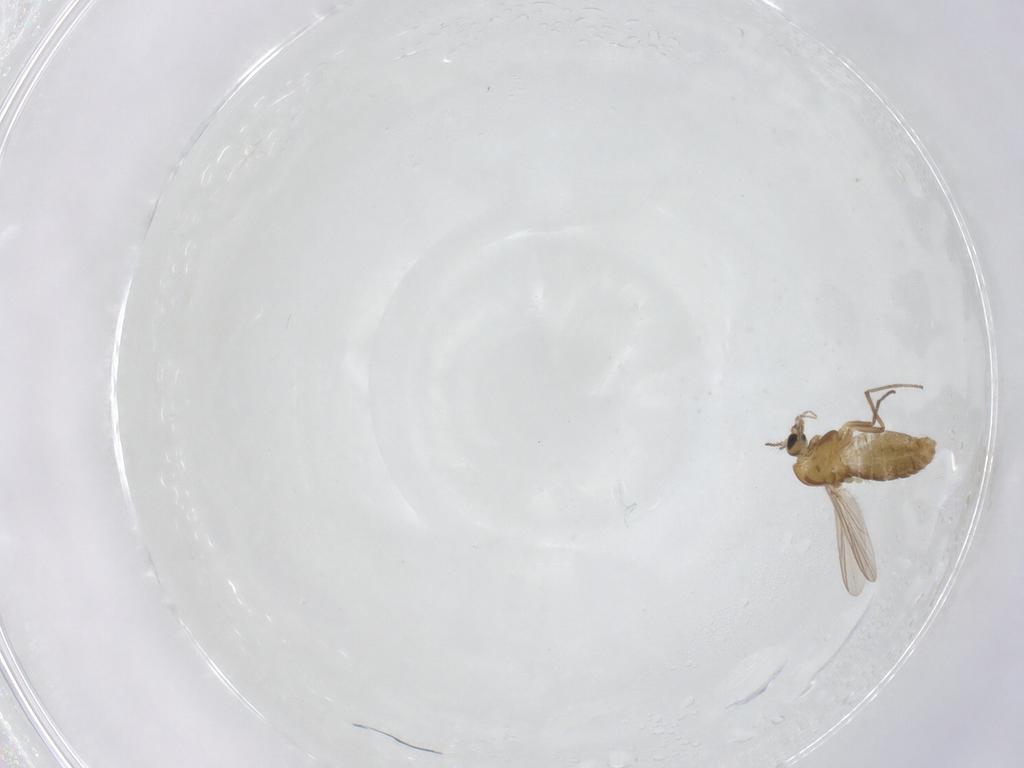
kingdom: Animalia
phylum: Arthropoda
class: Insecta
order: Diptera
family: Chironomidae
